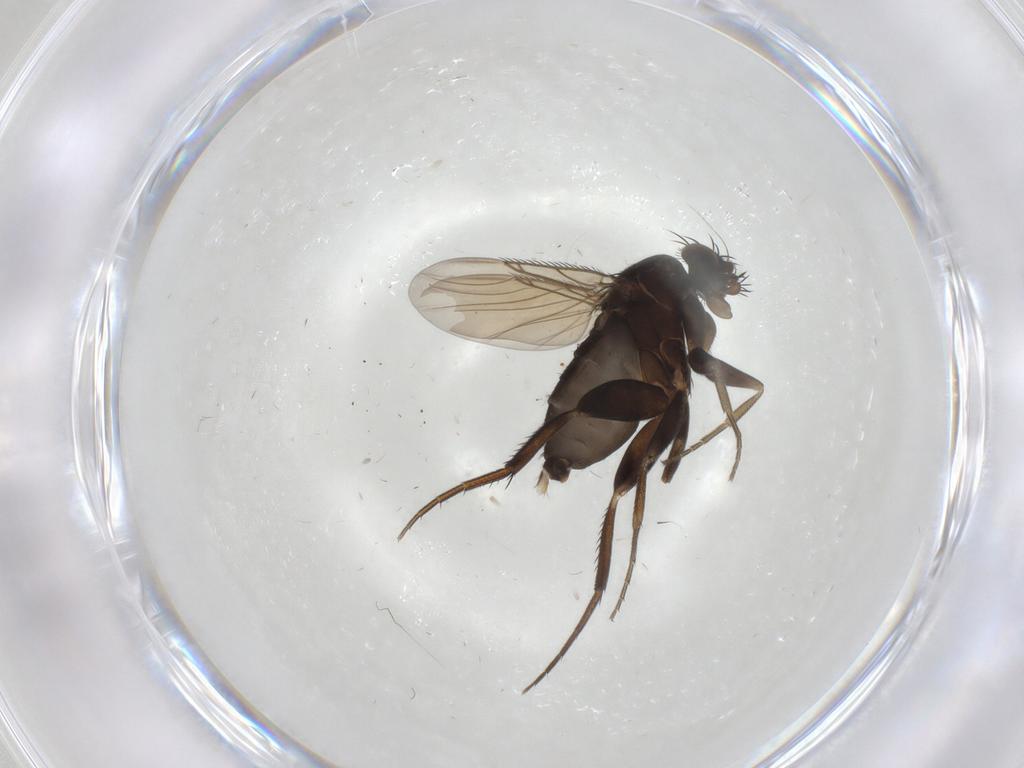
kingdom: Animalia
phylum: Arthropoda
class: Insecta
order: Diptera
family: Phoridae
